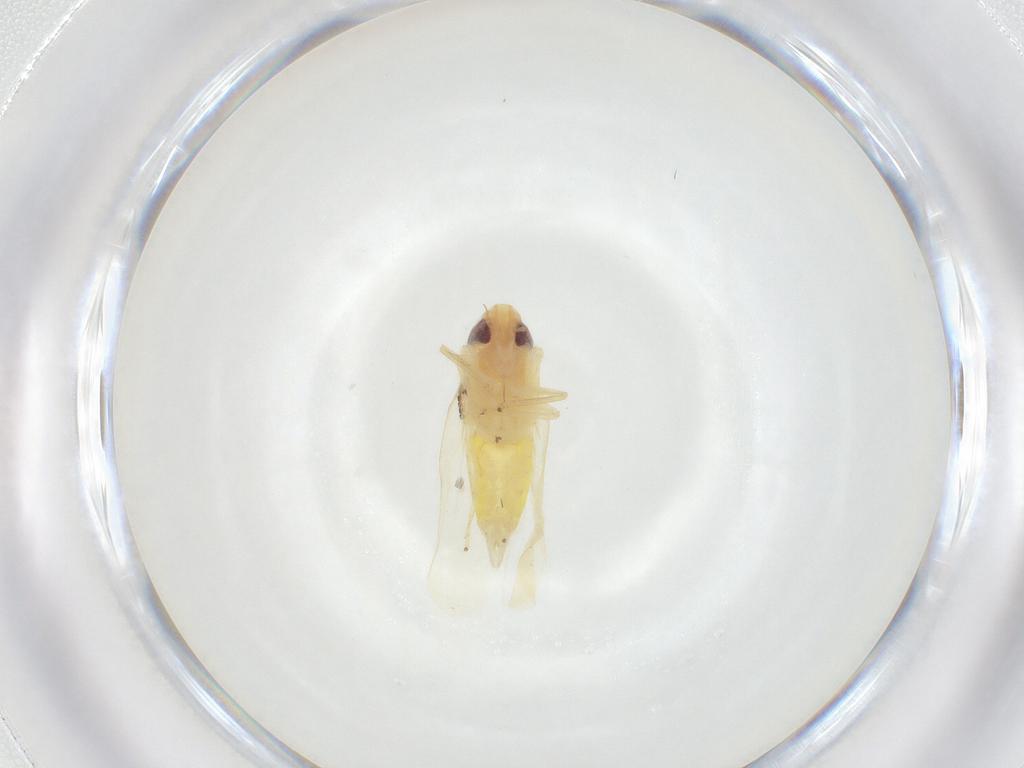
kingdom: Animalia
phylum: Arthropoda
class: Insecta
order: Hemiptera
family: Cicadellidae
